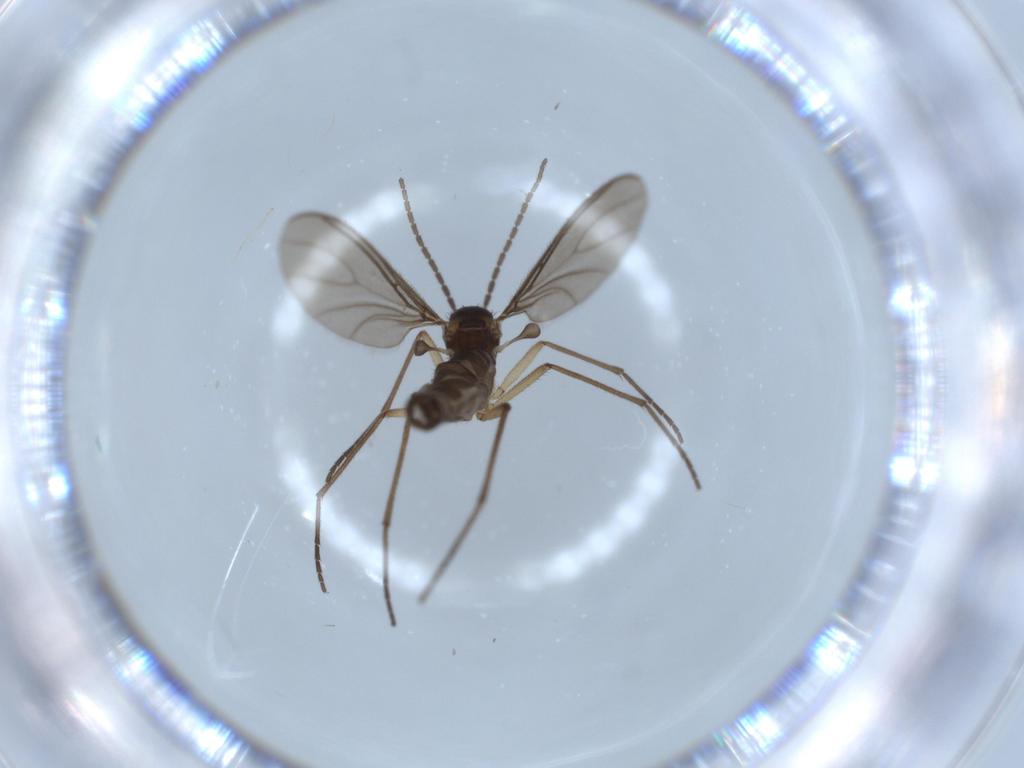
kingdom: Animalia
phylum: Arthropoda
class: Insecta
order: Diptera
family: Sciaridae
